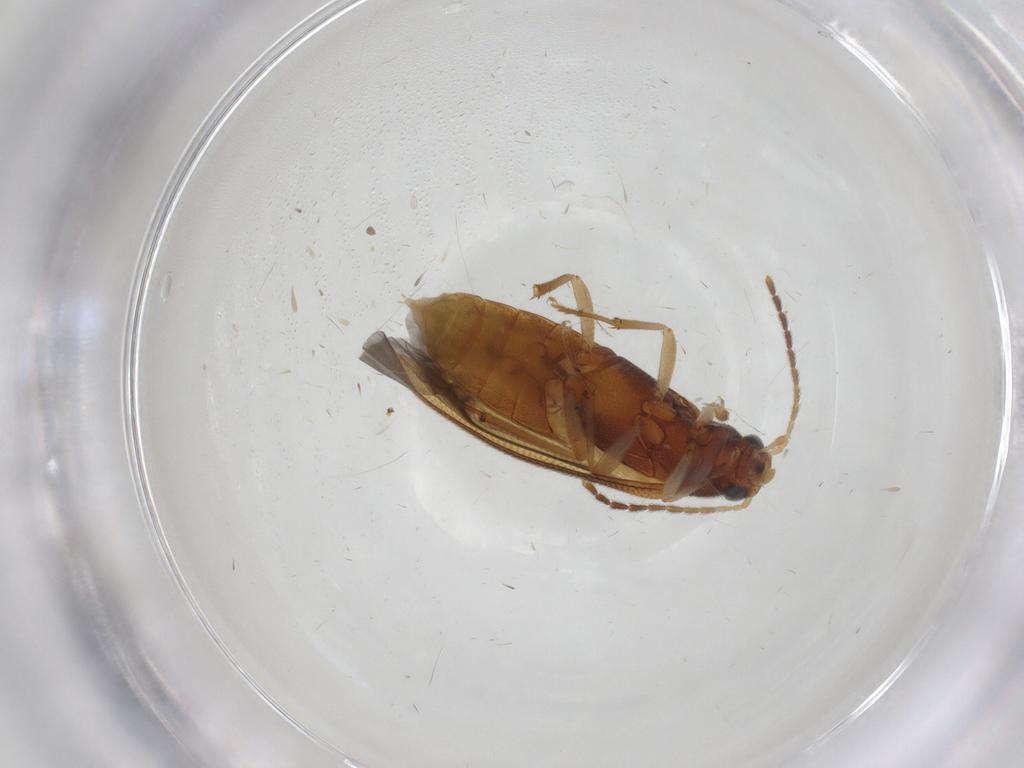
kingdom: Animalia
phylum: Arthropoda
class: Insecta
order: Coleoptera
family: Melandryidae
